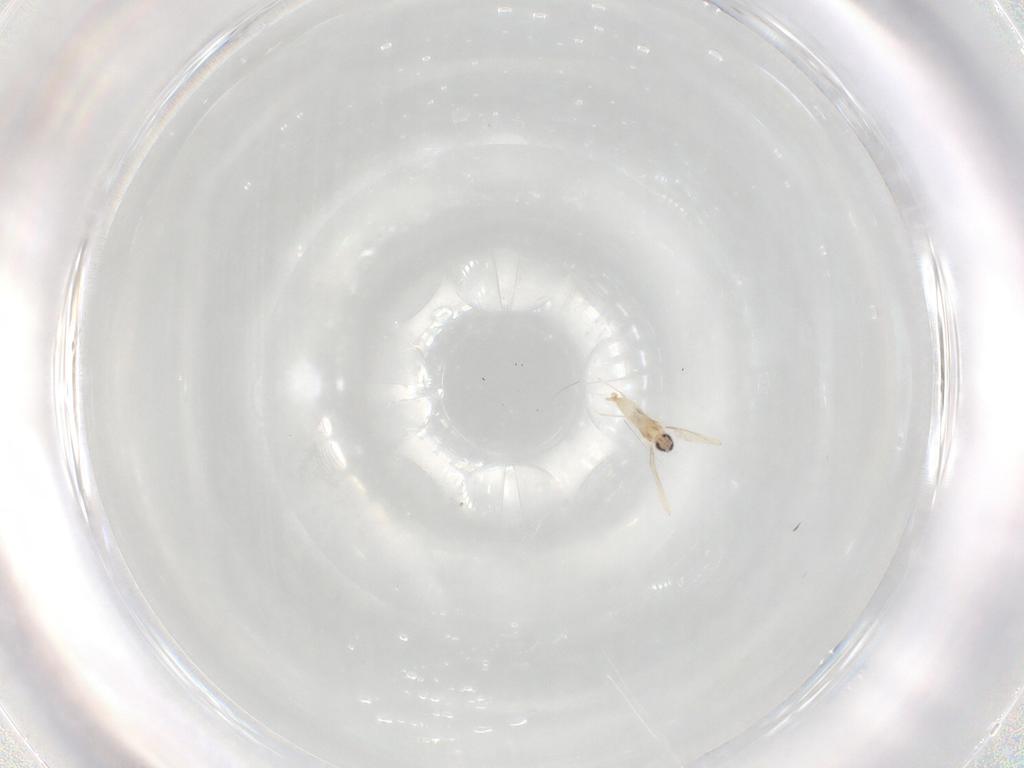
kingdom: Animalia
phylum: Arthropoda
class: Insecta
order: Diptera
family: Cecidomyiidae
